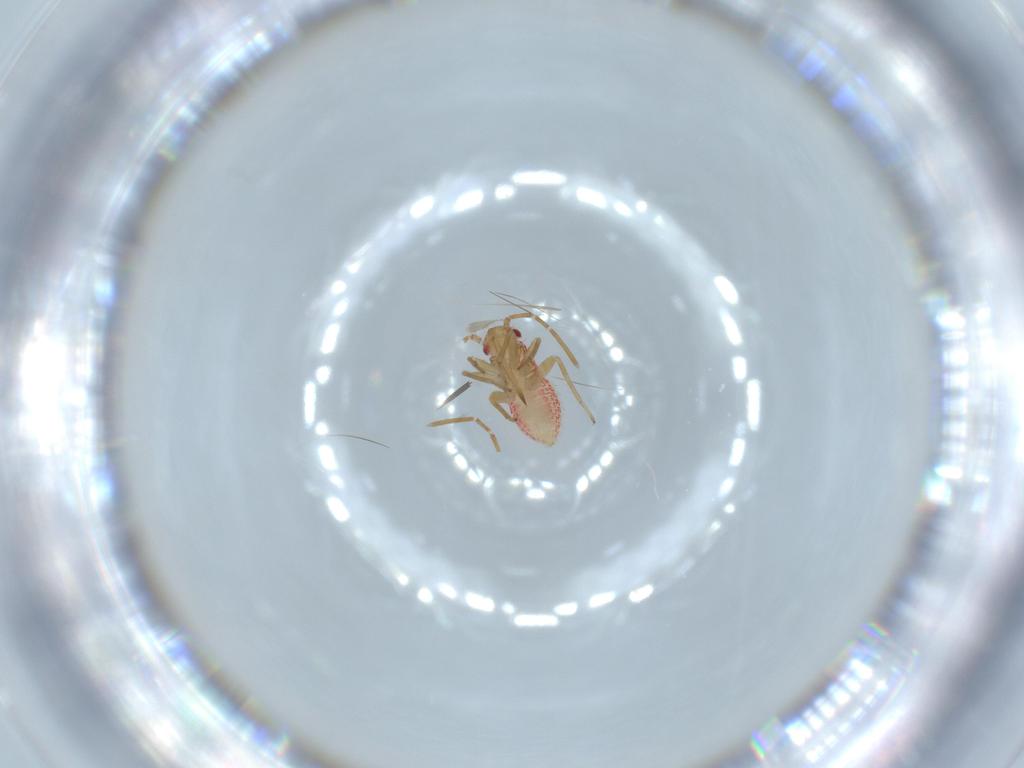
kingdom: Animalia
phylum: Arthropoda
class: Insecta
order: Hemiptera
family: Miridae
